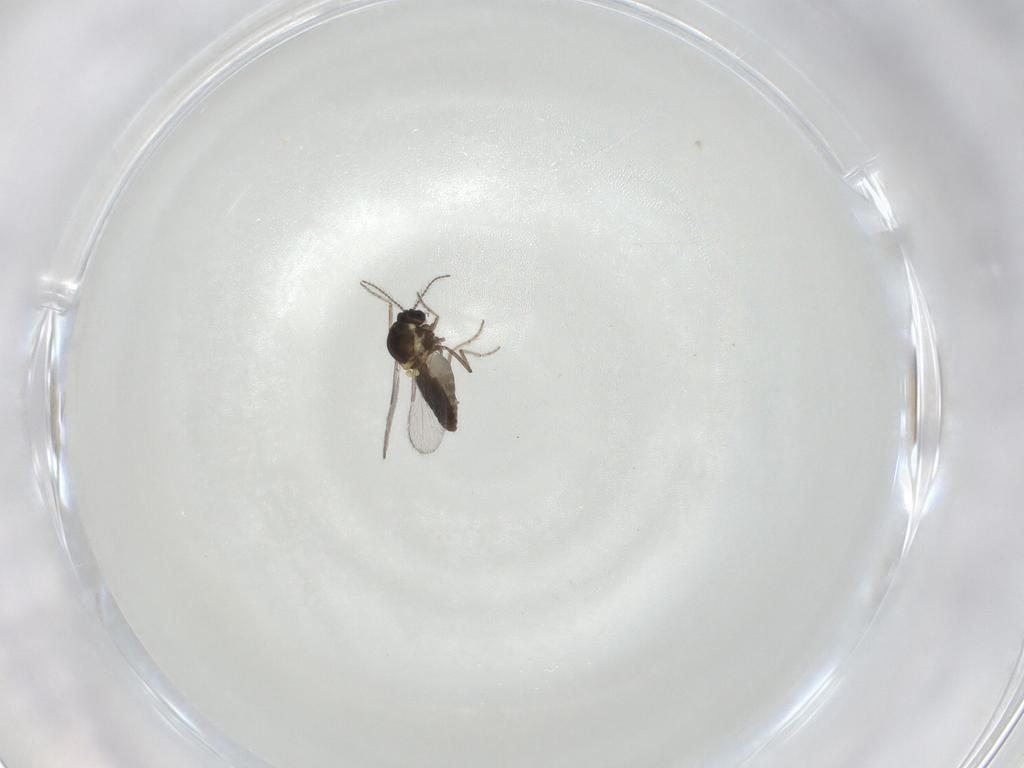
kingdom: Animalia
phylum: Arthropoda
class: Insecta
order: Diptera
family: Ceratopogonidae
